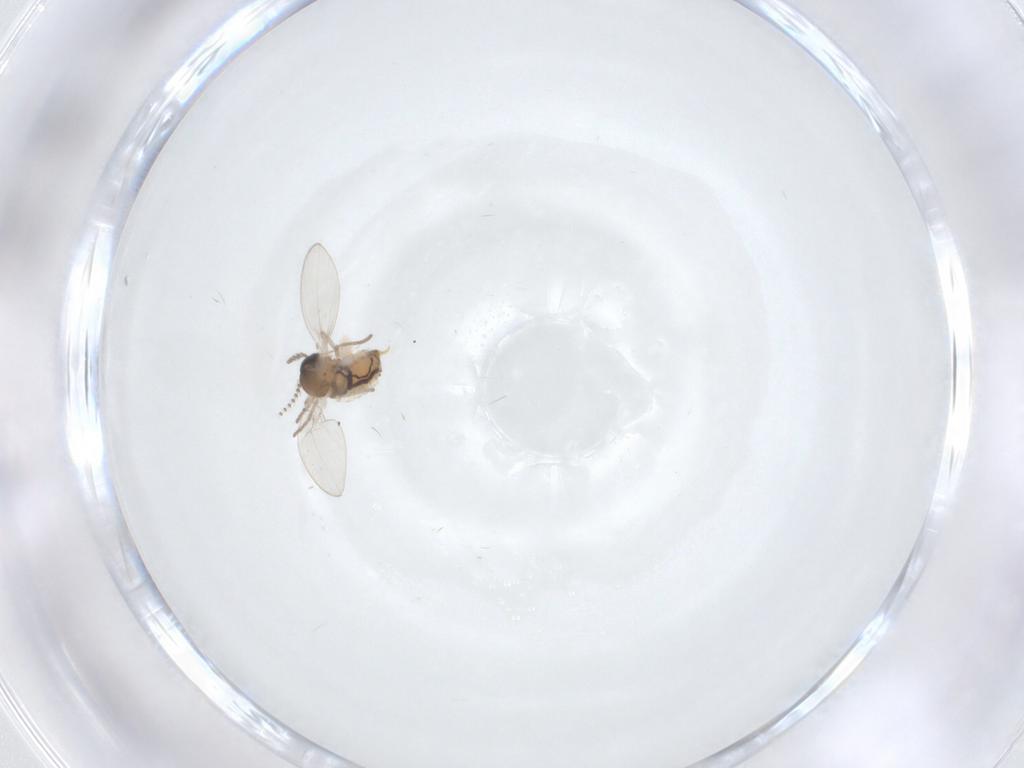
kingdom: Animalia
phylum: Arthropoda
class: Insecta
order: Diptera
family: Psychodidae
